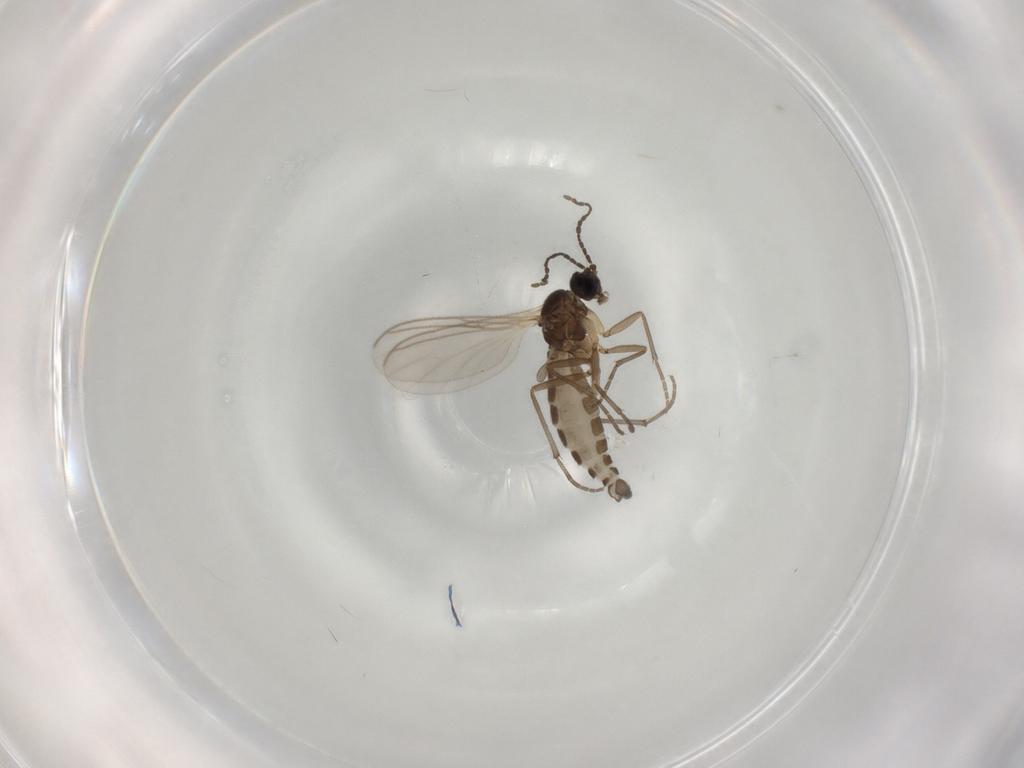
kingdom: Animalia
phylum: Arthropoda
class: Insecta
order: Diptera
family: Chironomidae
